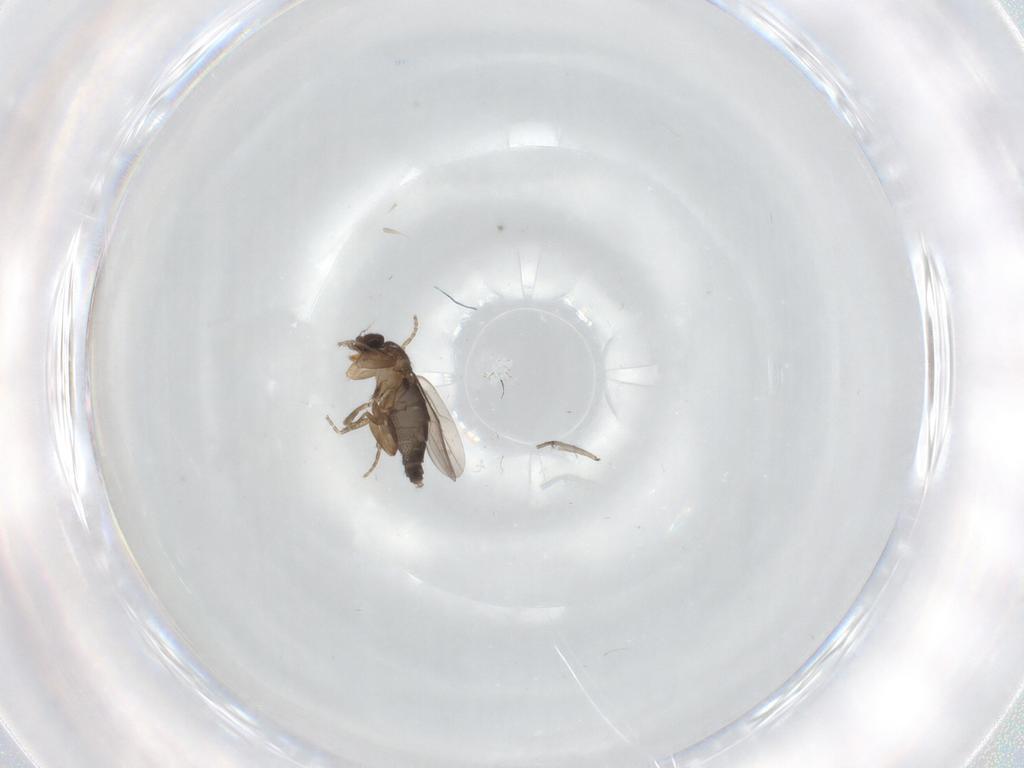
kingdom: Animalia
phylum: Arthropoda
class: Insecta
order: Diptera
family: Sciaridae
